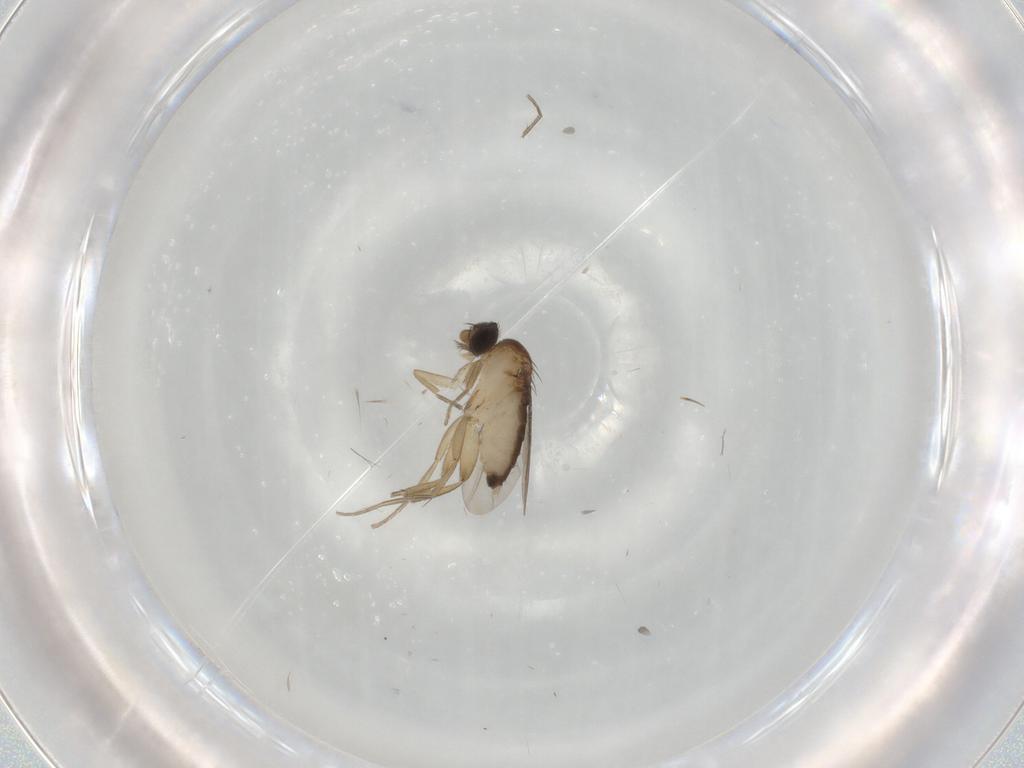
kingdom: Animalia
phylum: Arthropoda
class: Insecta
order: Diptera
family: Phoridae
